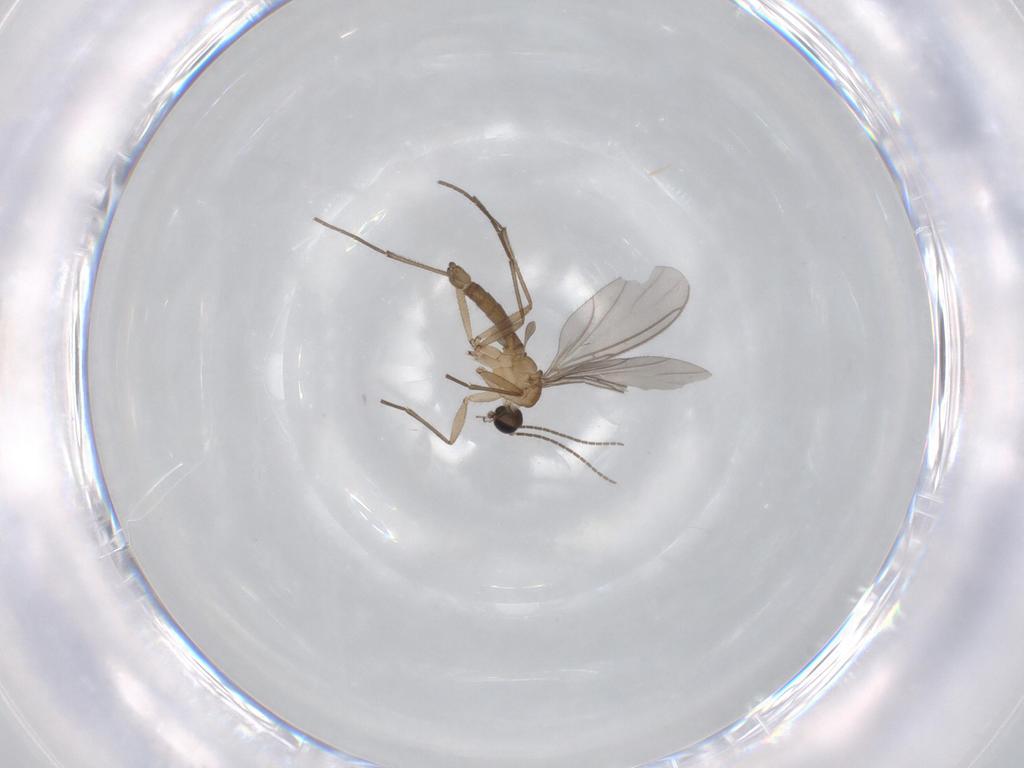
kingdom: Animalia
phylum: Arthropoda
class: Insecta
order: Diptera
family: Sciaridae
